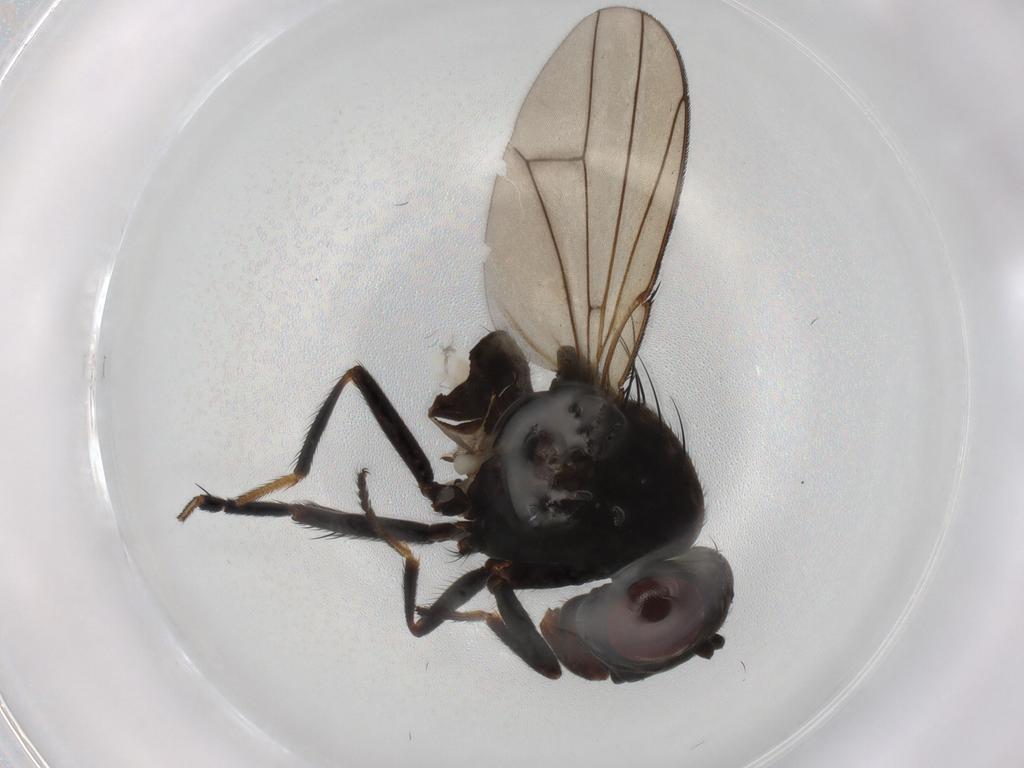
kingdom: Animalia
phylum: Arthropoda
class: Insecta
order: Diptera
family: Ephydridae
